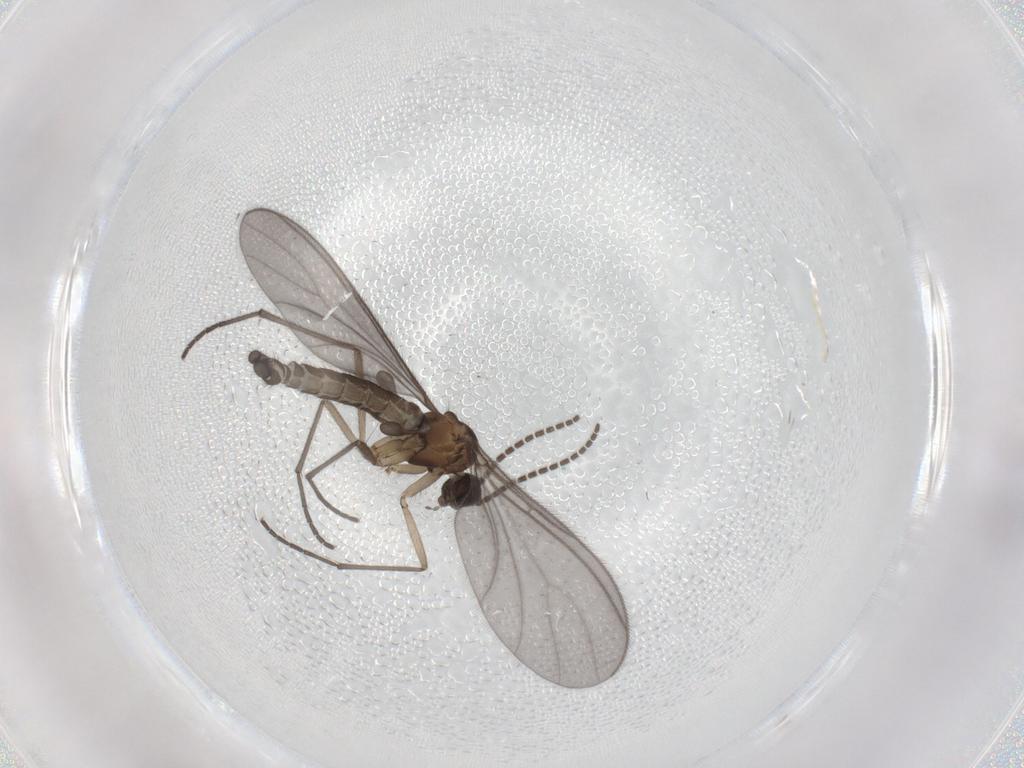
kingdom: Animalia
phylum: Arthropoda
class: Insecta
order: Diptera
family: Sciaridae
